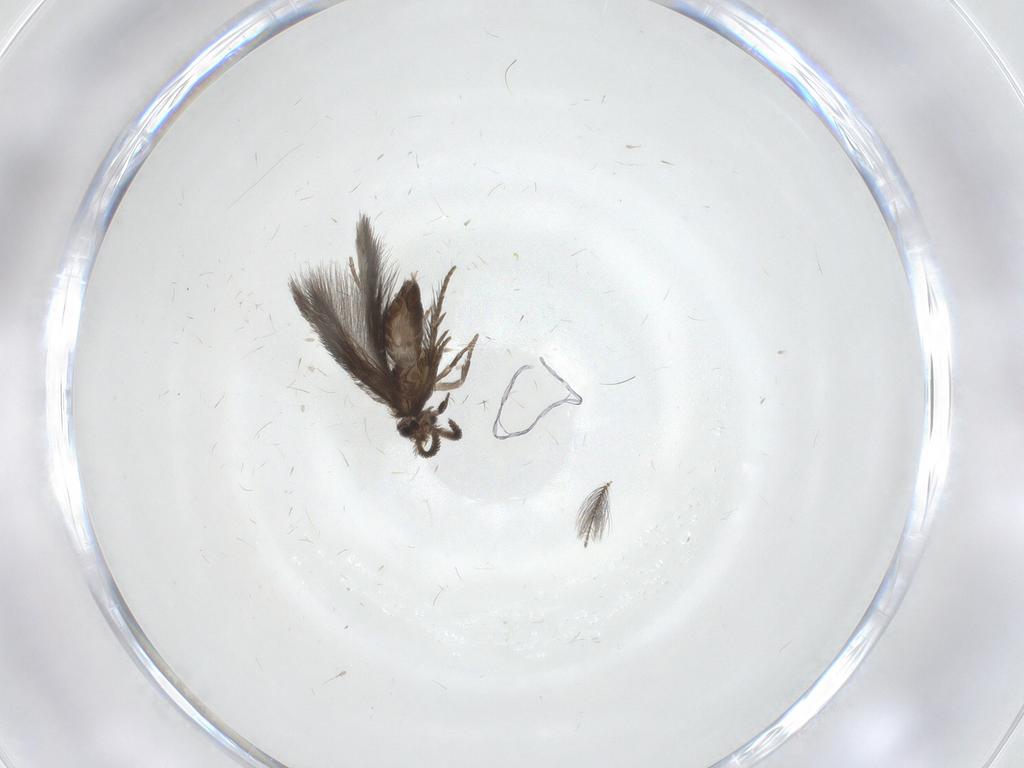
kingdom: Animalia
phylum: Arthropoda
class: Insecta
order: Trichoptera
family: Hydroptilidae
